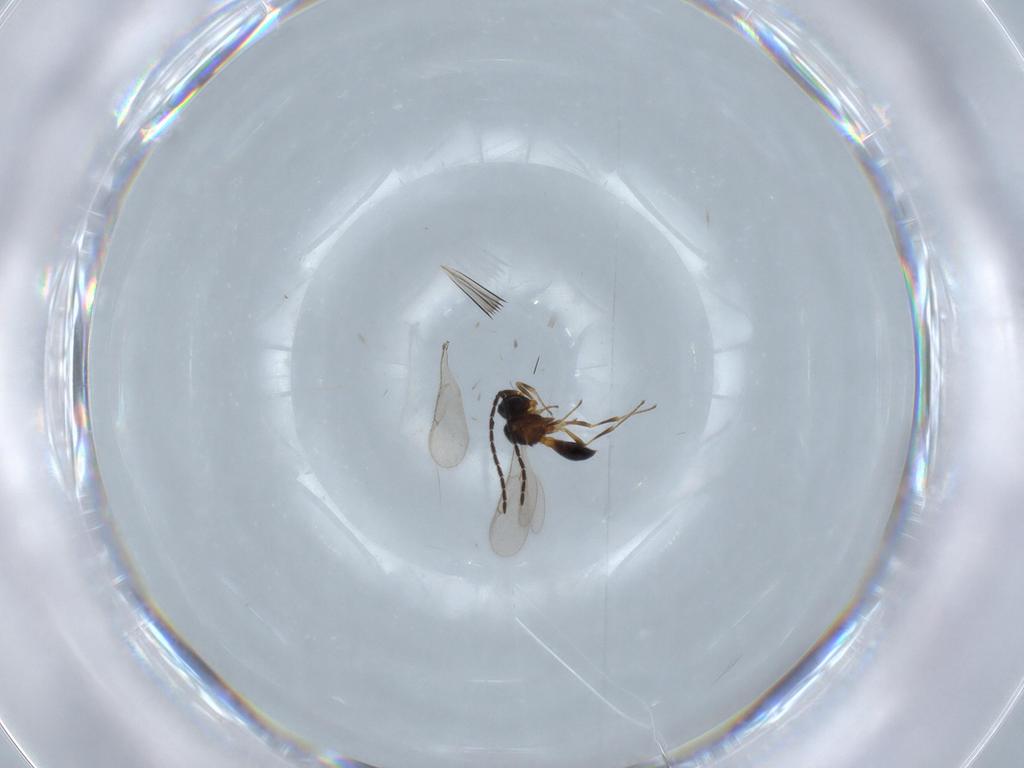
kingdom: Animalia
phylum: Arthropoda
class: Insecta
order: Hymenoptera
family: Scelionidae
